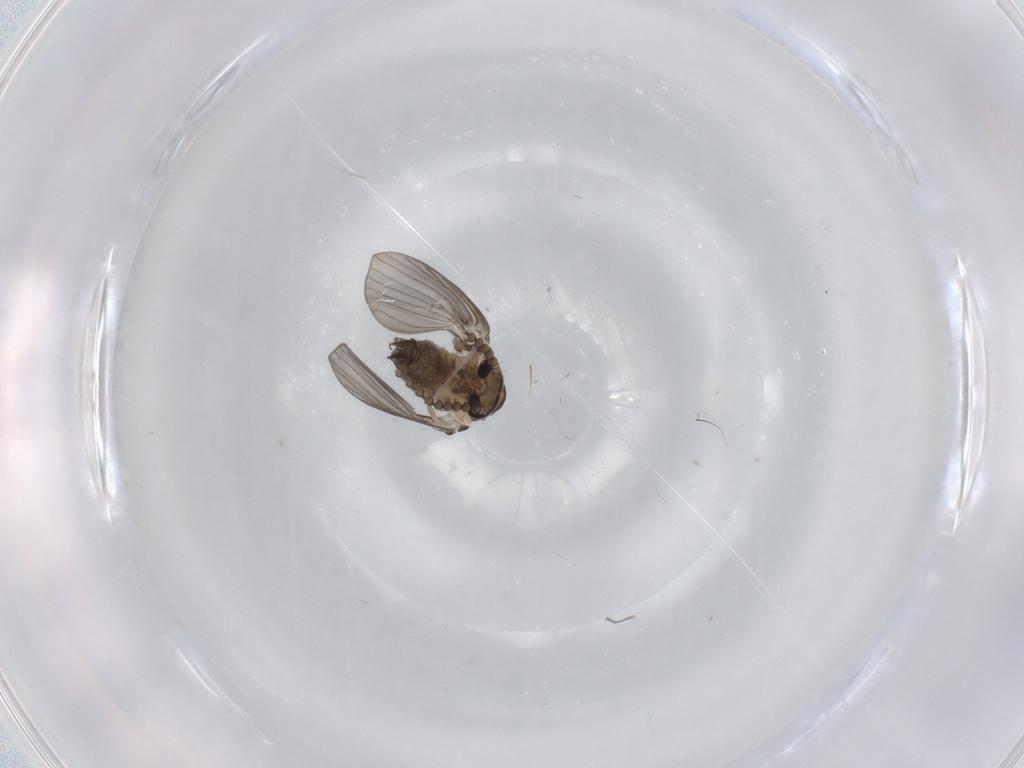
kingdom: Animalia
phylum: Arthropoda
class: Insecta
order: Diptera
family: Psychodidae
